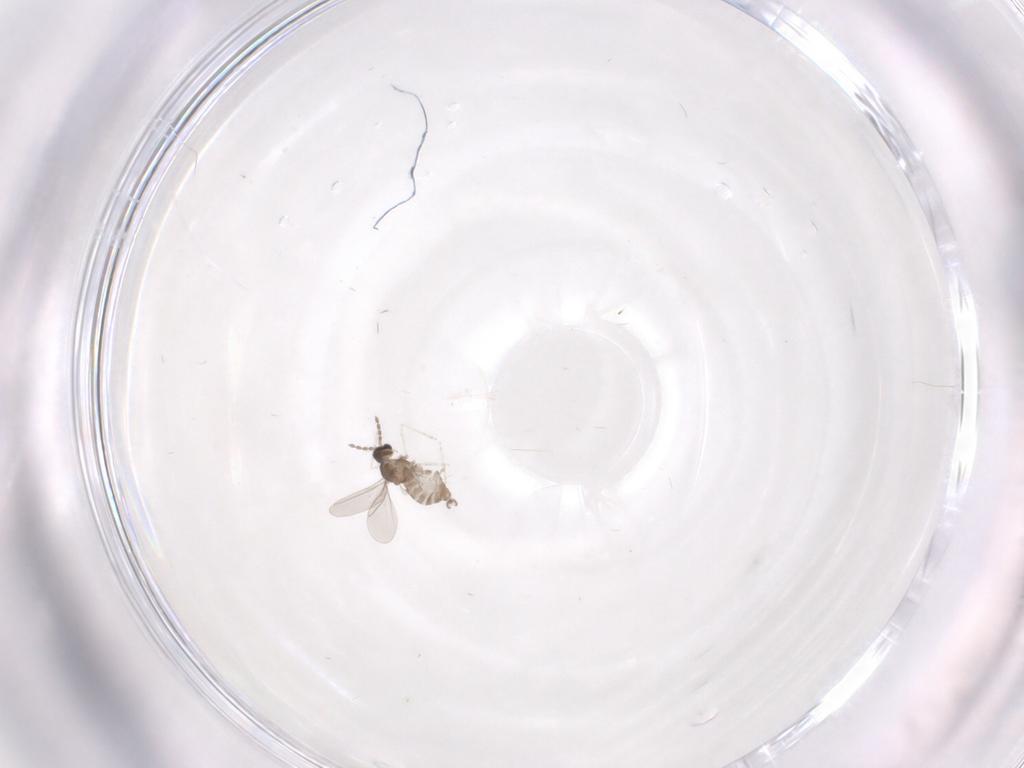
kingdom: Animalia
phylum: Arthropoda
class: Insecta
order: Diptera
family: Cecidomyiidae
